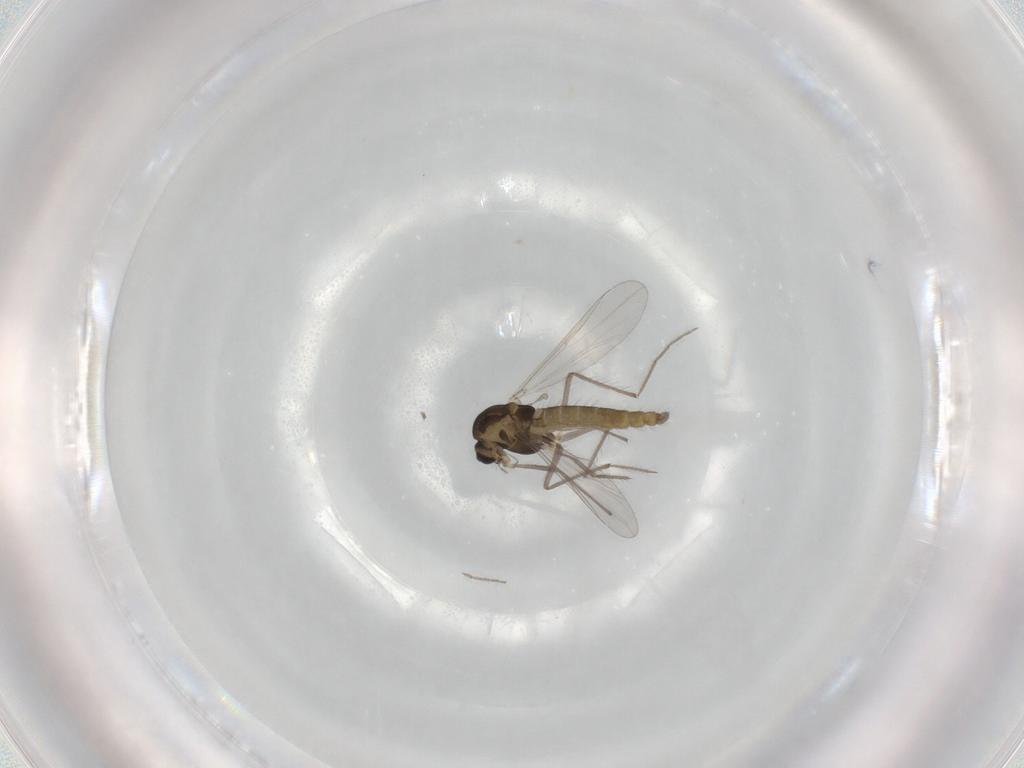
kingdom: Animalia
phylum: Arthropoda
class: Insecta
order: Diptera
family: Chironomidae
